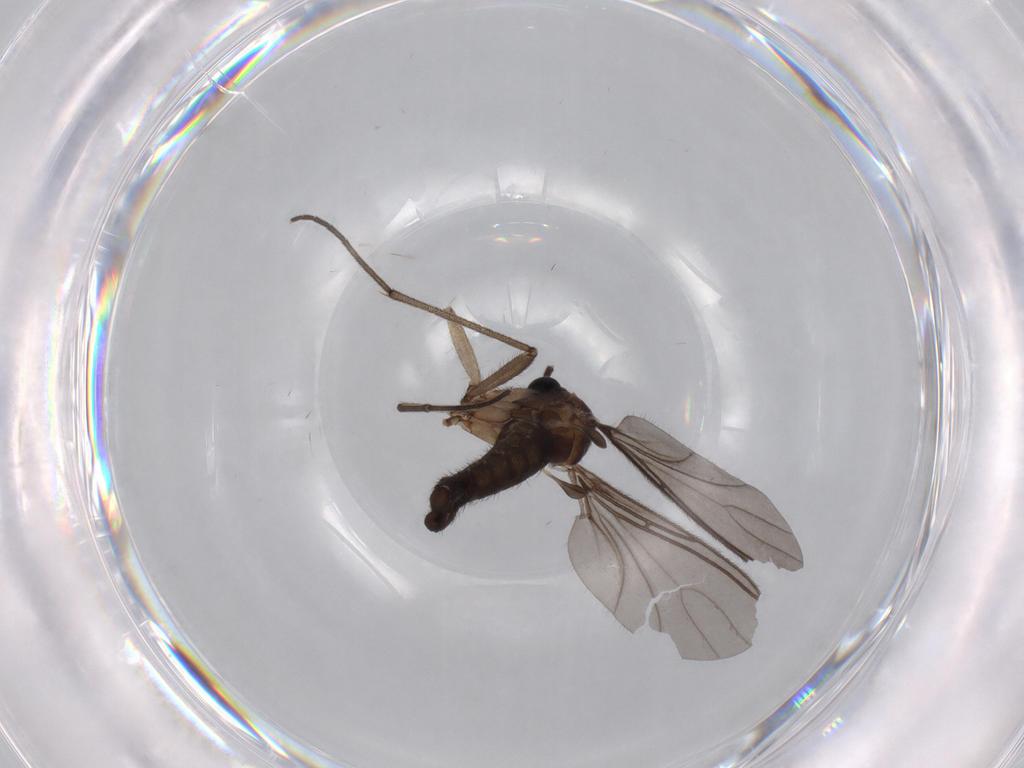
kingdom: Animalia
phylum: Arthropoda
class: Insecta
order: Diptera
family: Sciaridae
